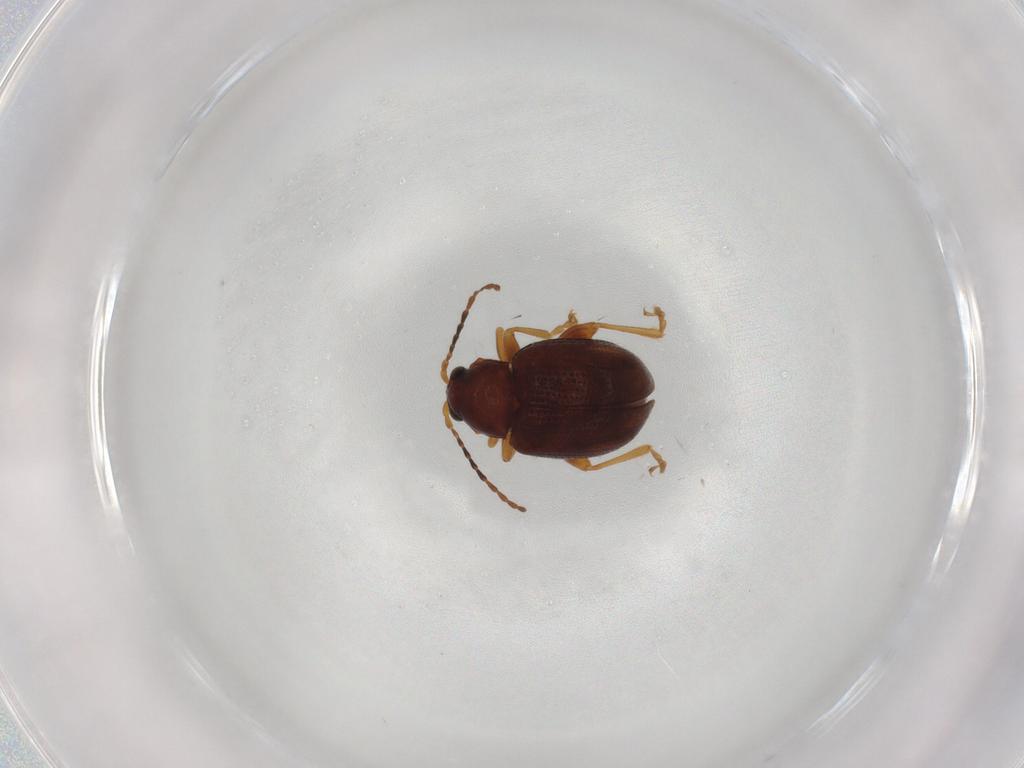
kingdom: Animalia
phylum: Arthropoda
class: Insecta
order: Coleoptera
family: Chrysomelidae
